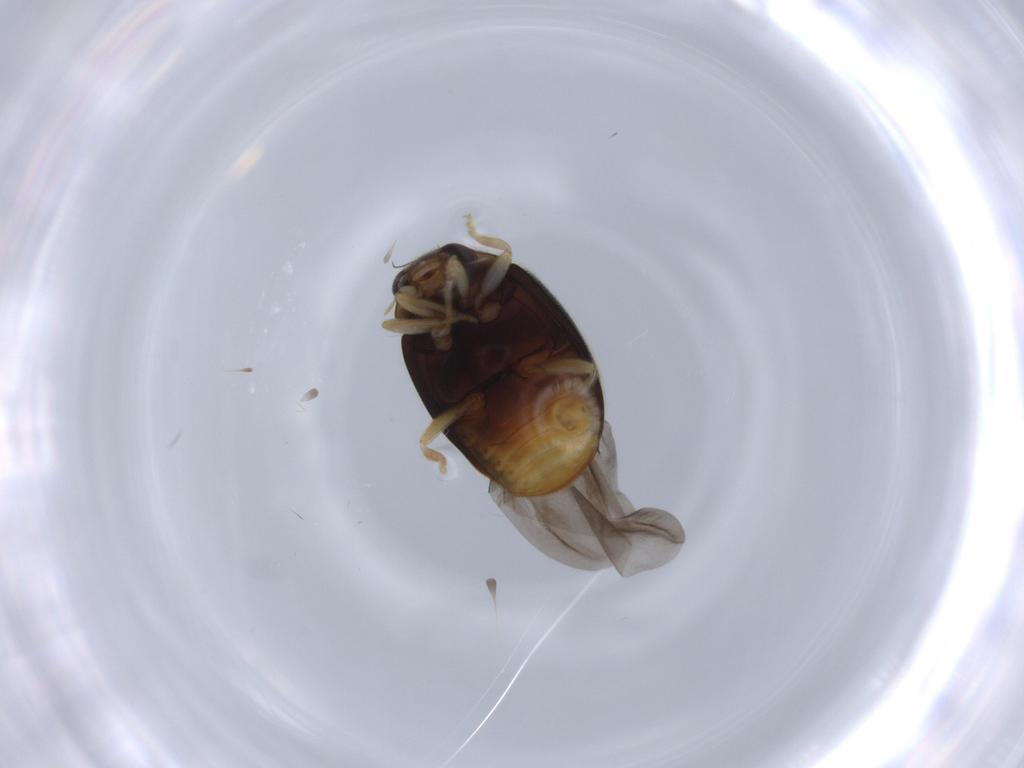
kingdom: Animalia
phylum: Arthropoda
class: Insecta
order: Coleoptera
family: Coccinellidae
